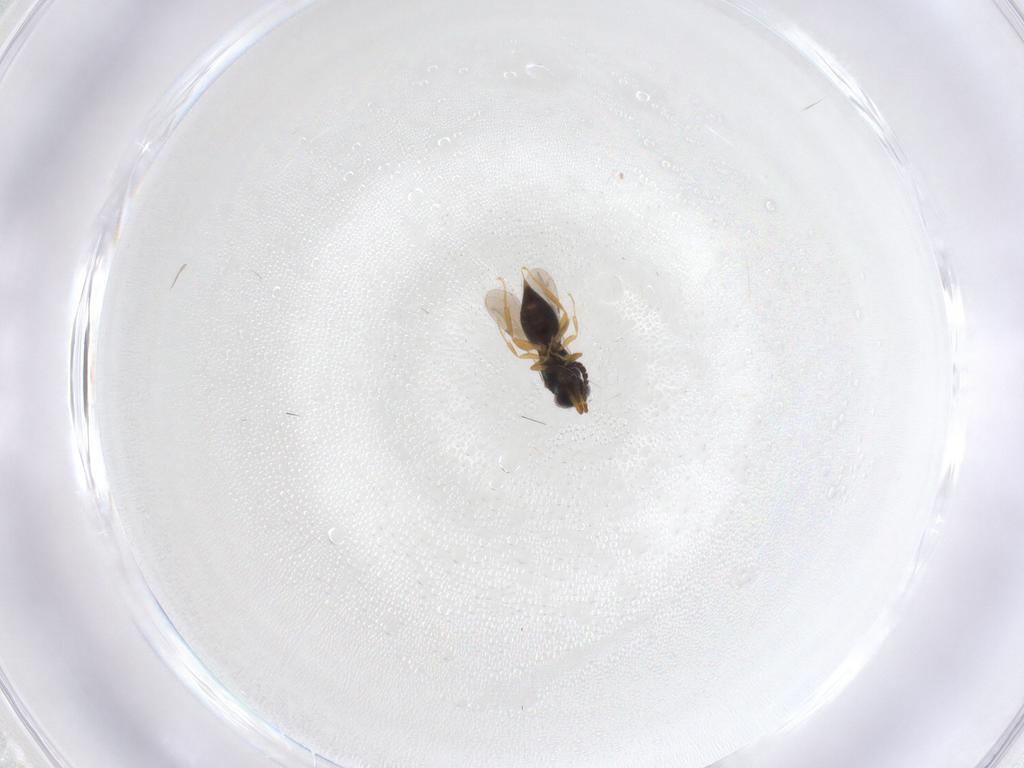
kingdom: Animalia
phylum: Arthropoda
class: Insecta
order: Hymenoptera
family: Ceraphronidae
